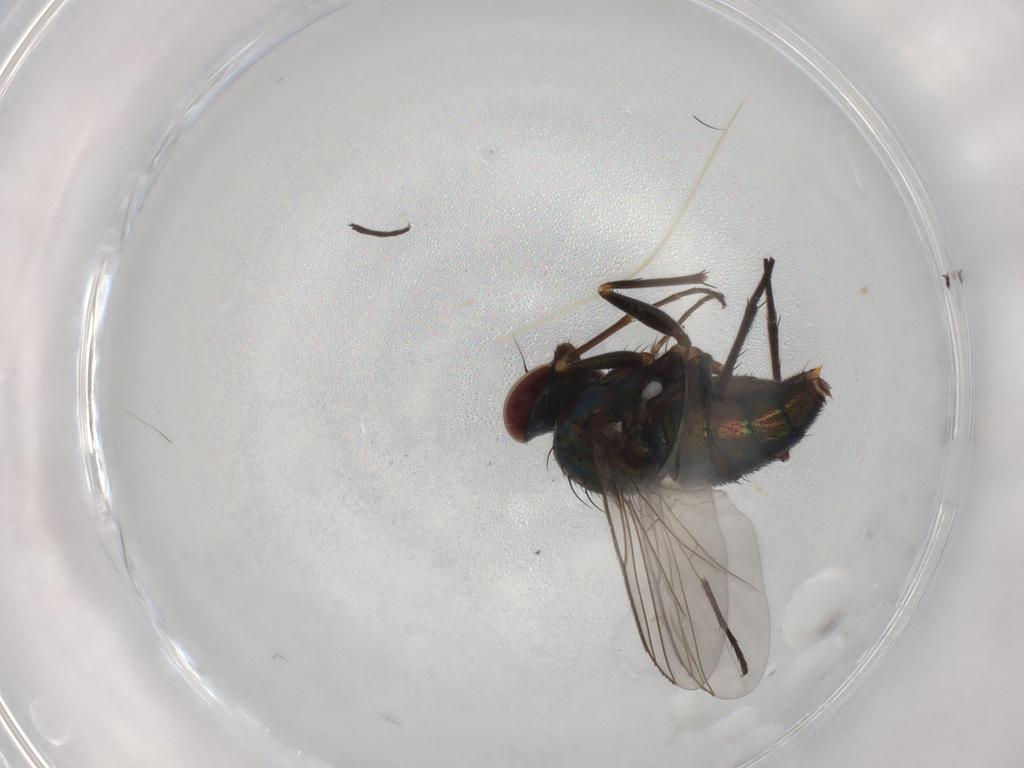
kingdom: Animalia
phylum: Arthropoda
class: Insecta
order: Diptera
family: Dolichopodidae
